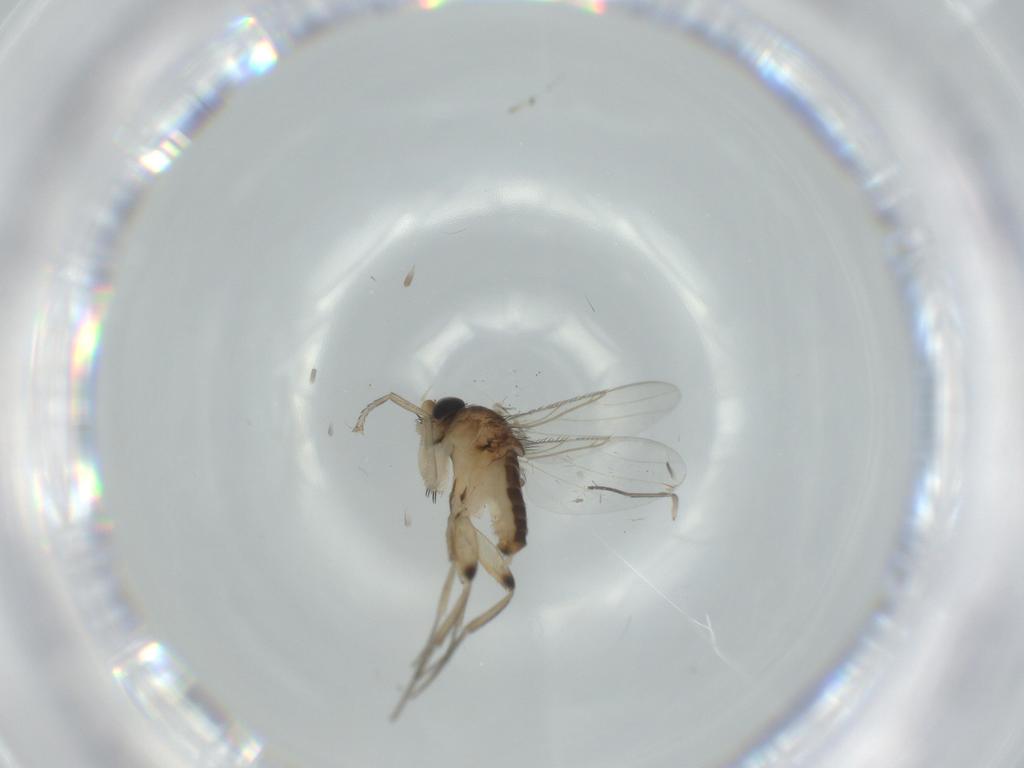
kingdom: Animalia
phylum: Arthropoda
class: Insecta
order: Diptera
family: Phoridae
